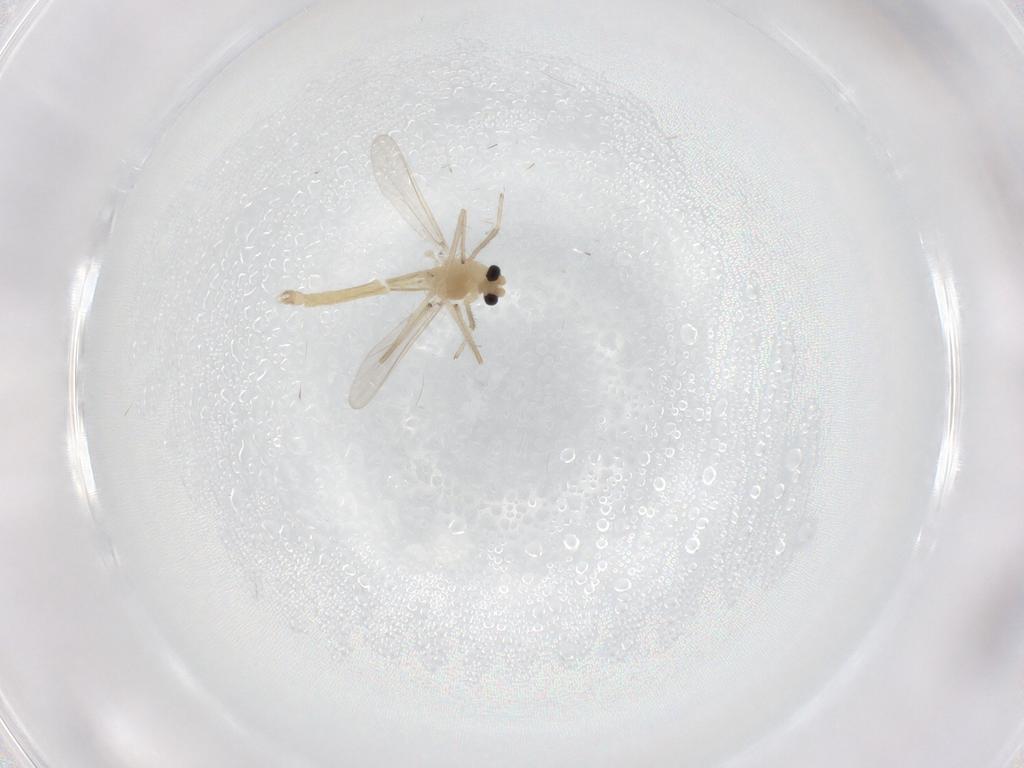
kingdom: Animalia
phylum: Arthropoda
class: Insecta
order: Diptera
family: Chironomidae
